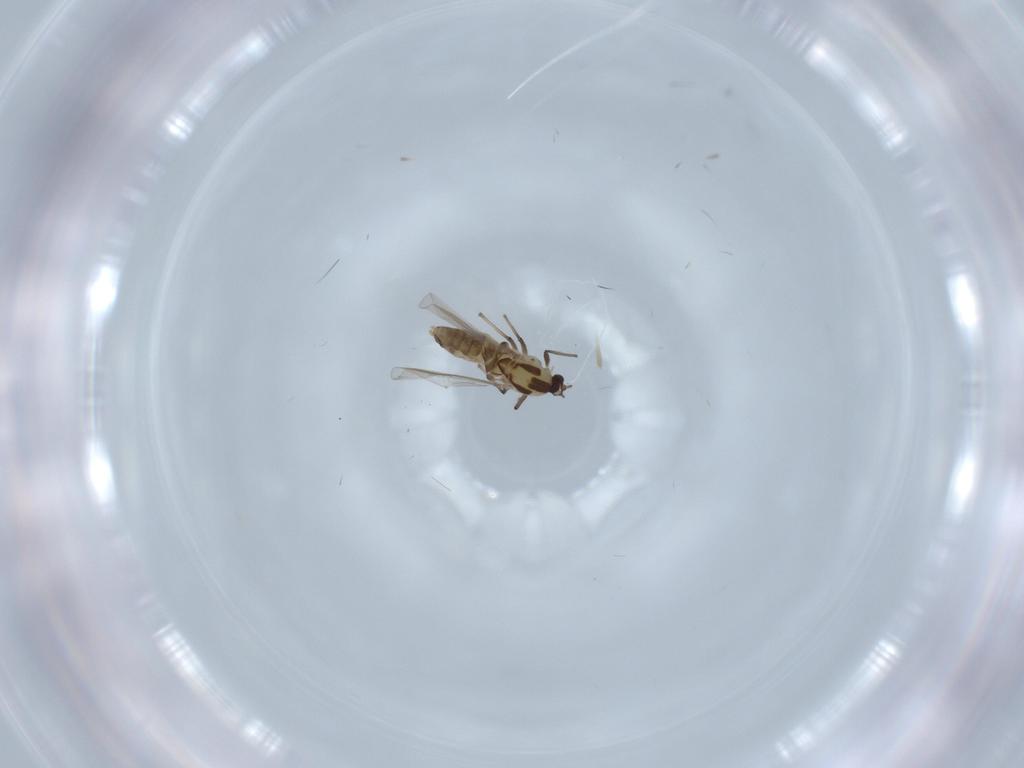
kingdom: Animalia
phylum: Arthropoda
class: Insecta
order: Diptera
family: Chironomidae
